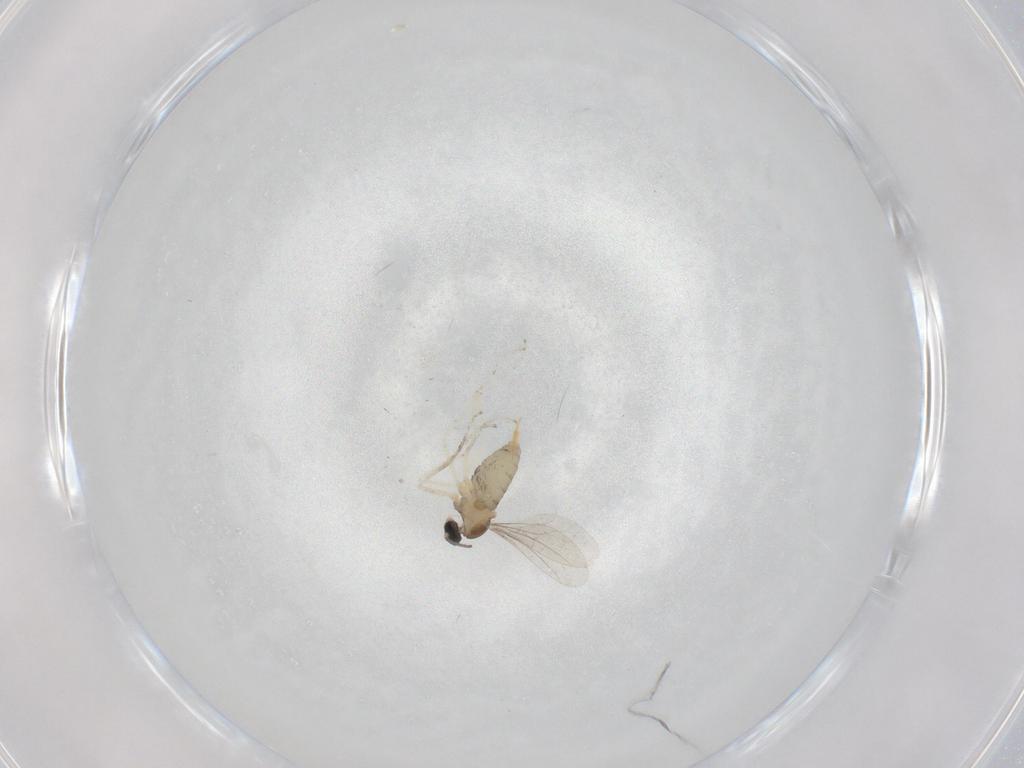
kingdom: Animalia
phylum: Arthropoda
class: Insecta
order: Diptera
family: Cecidomyiidae
